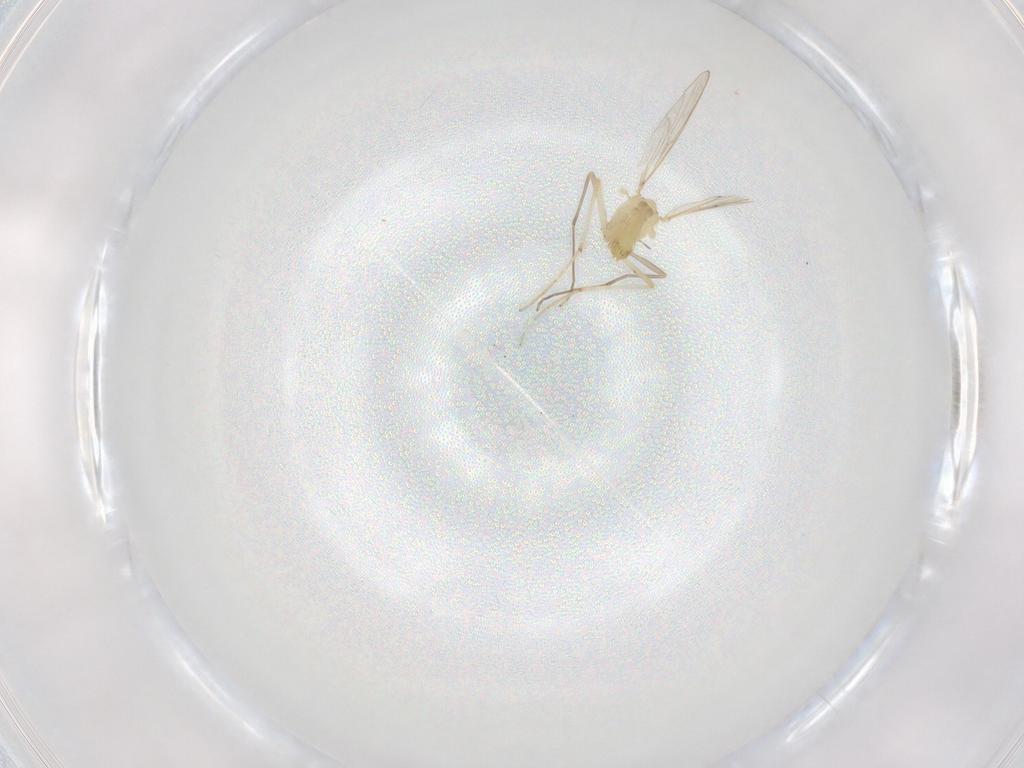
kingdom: Animalia
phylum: Arthropoda
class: Insecta
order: Diptera
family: Chironomidae
